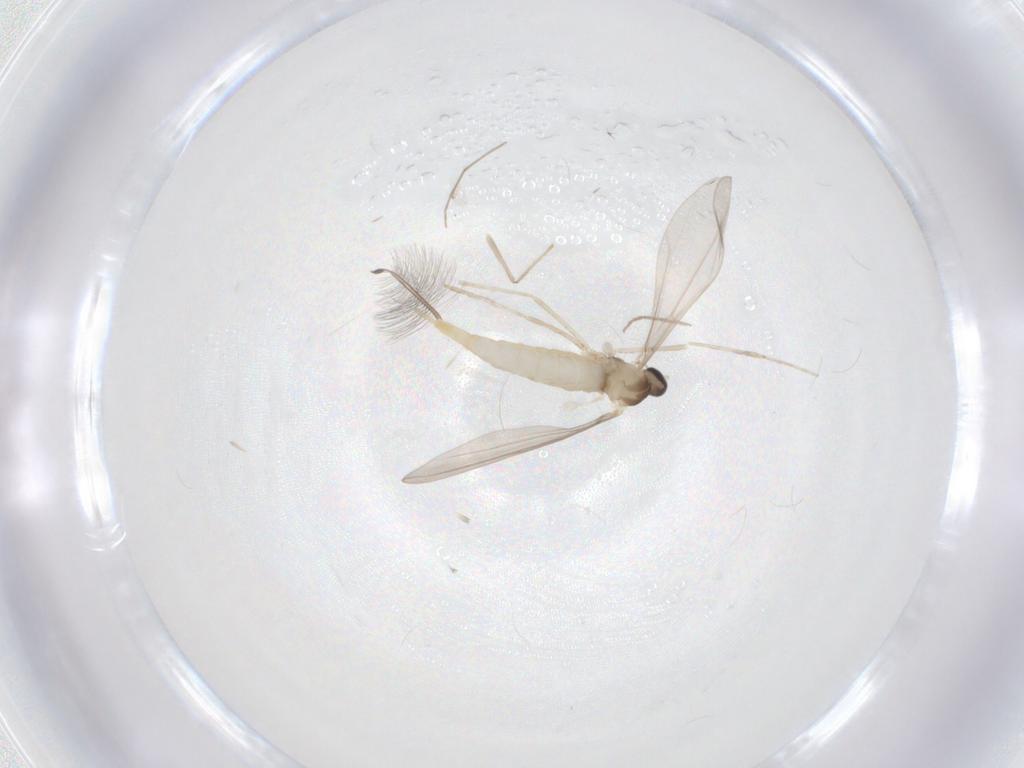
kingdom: Animalia
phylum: Arthropoda
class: Insecta
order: Diptera
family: Chironomidae
